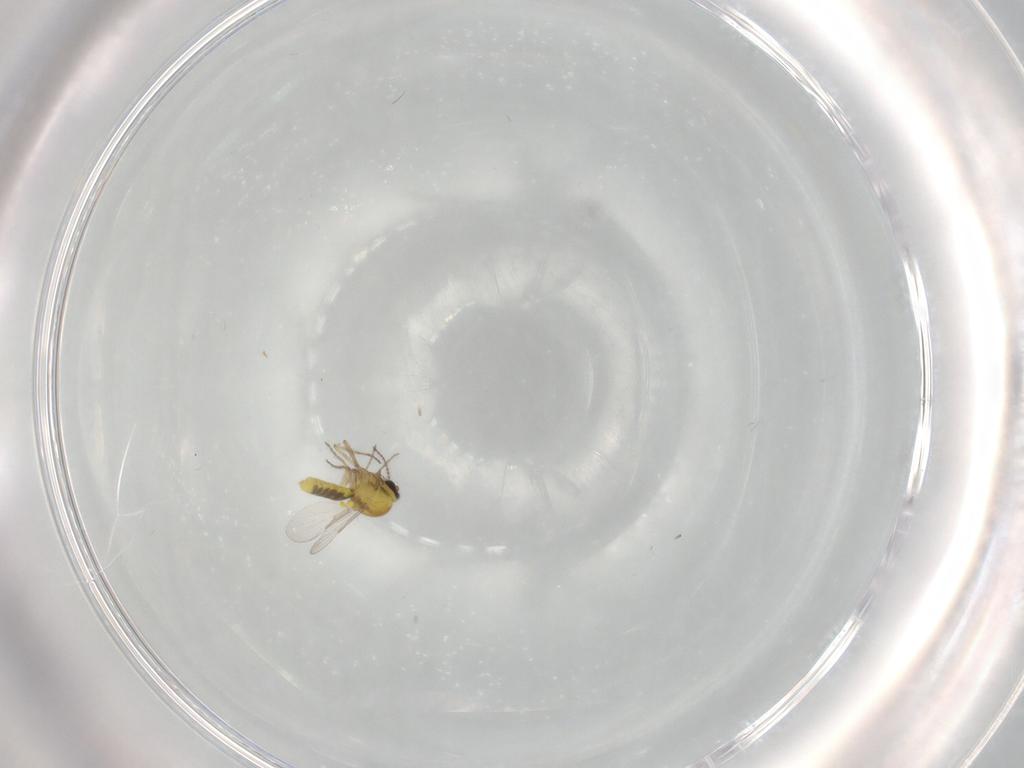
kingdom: Animalia
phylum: Arthropoda
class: Insecta
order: Diptera
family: Ceratopogonidae
